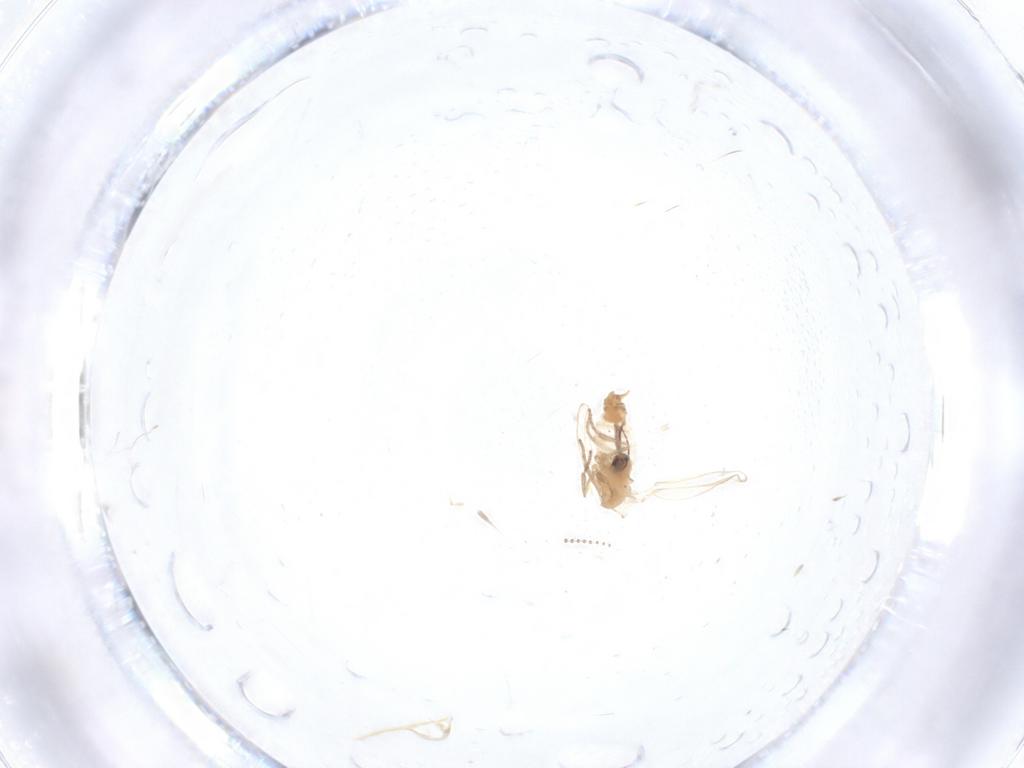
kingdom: Animalia
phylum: Arthropoda
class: Insecta
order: Diptera
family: Psychodidae
